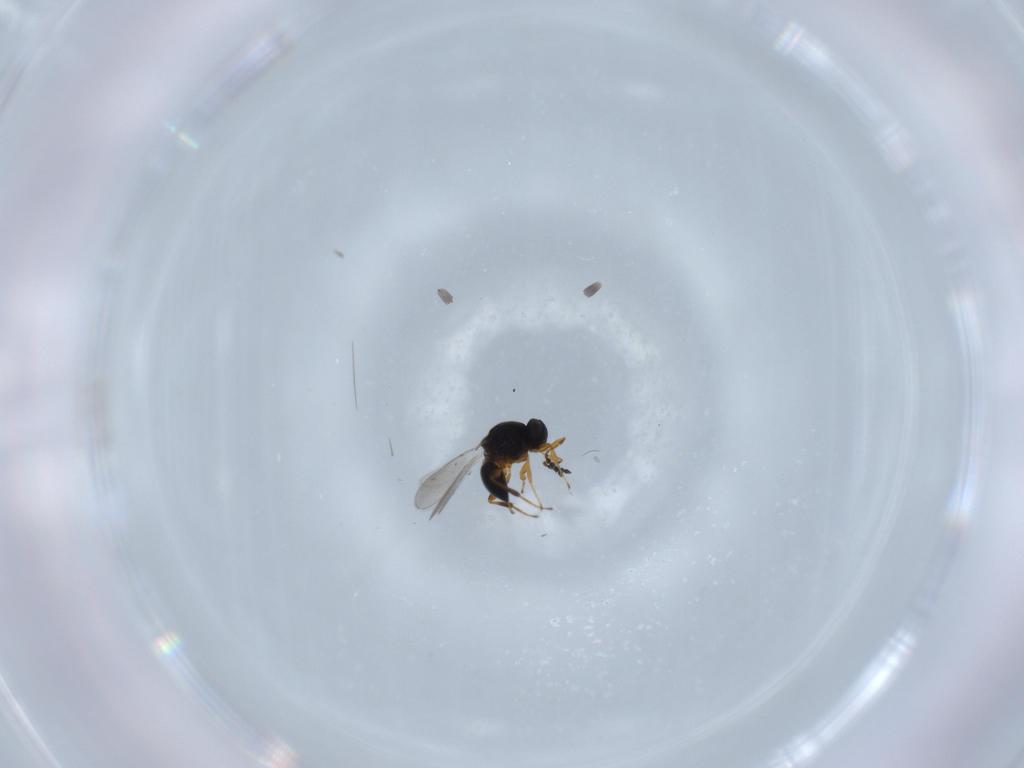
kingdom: Animalia
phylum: Arthropoda
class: Insecta
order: Hymenoptera
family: Platygastridae
